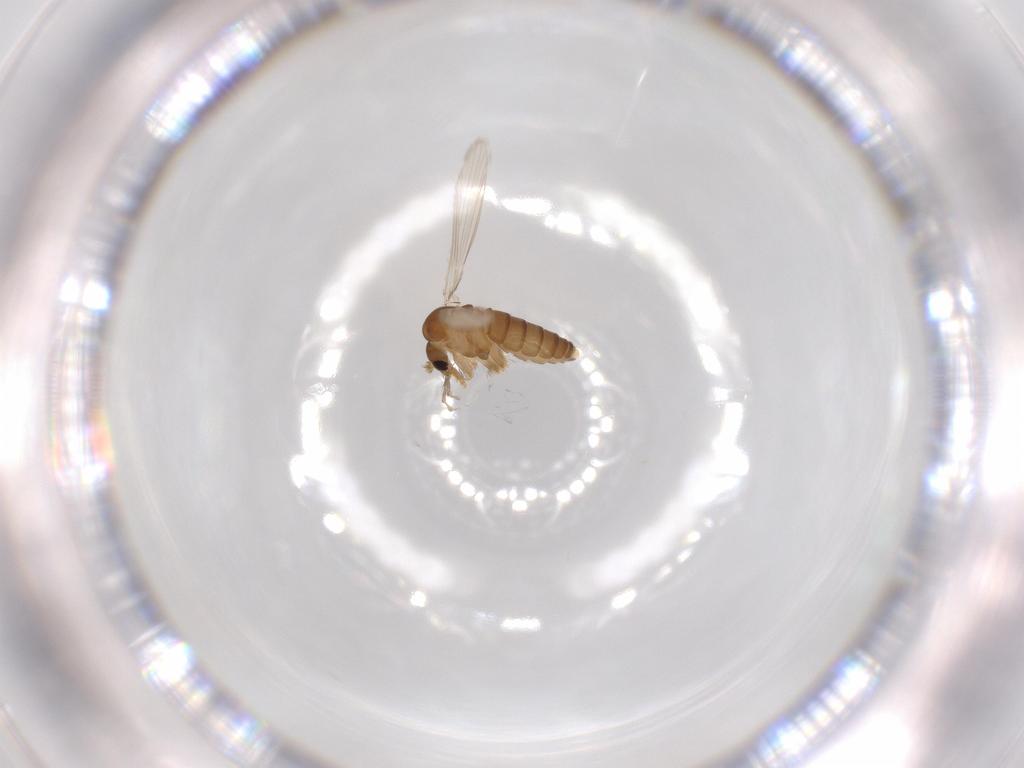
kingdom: Animalia
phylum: Arthropoda
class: Insecta
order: Diptera
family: Psychodidae
